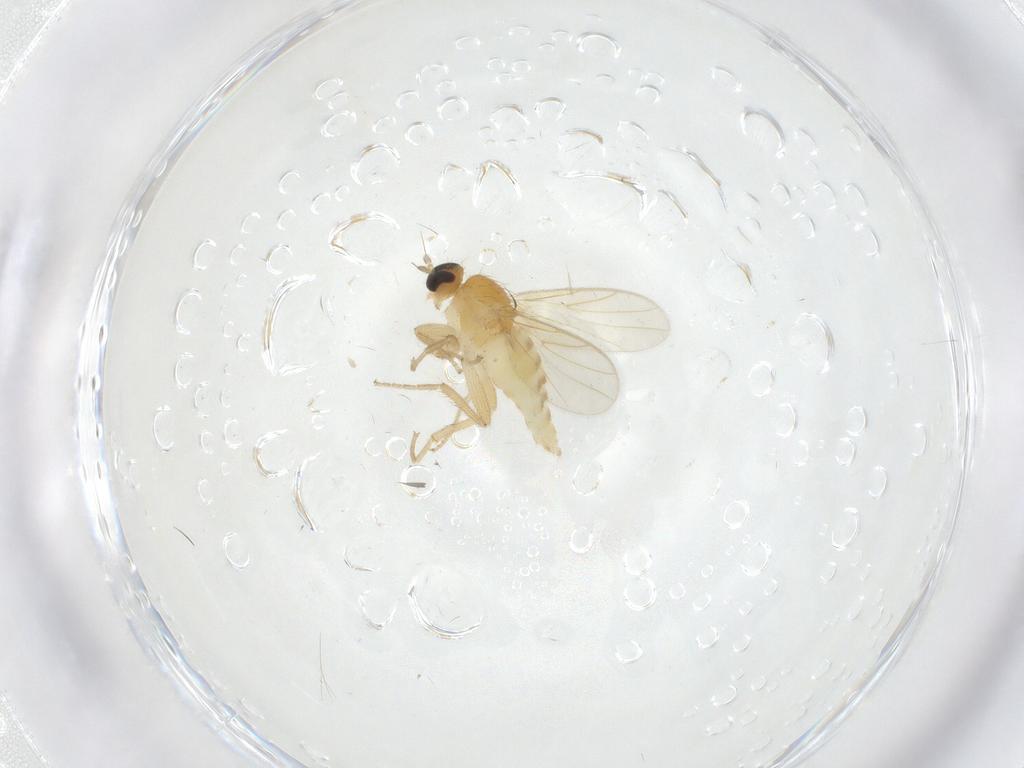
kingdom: Animalia
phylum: Arthropoda
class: Insecta
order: Diptera
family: Hybotidae
